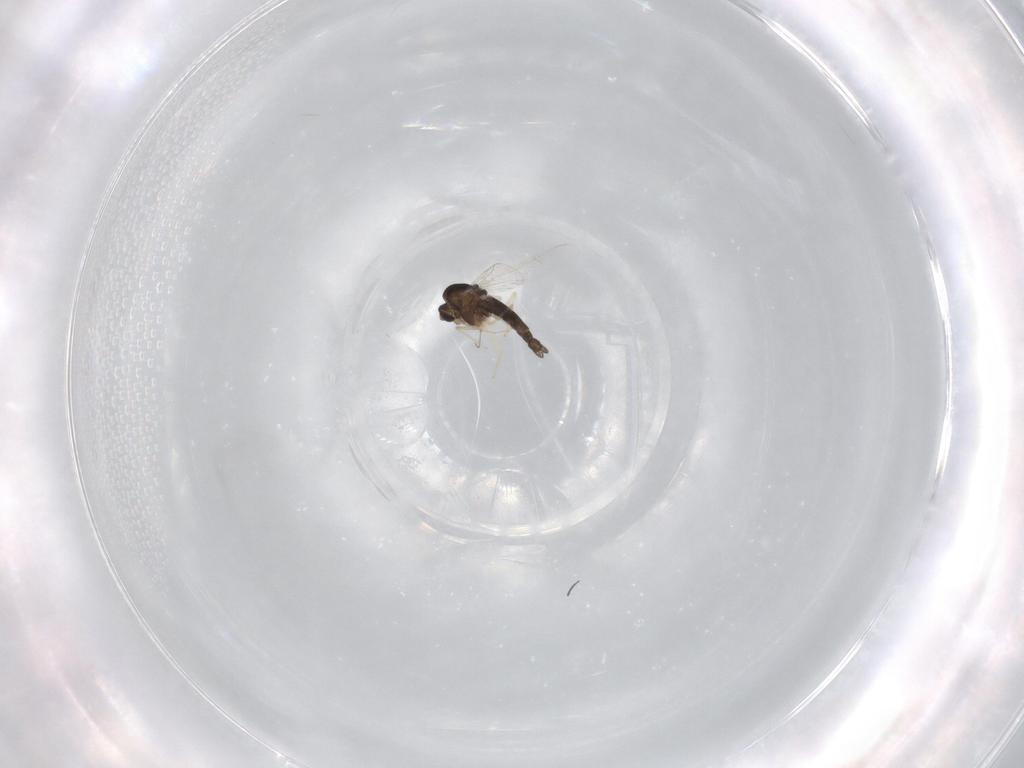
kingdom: Animalia
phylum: Arthropoda
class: Insecta
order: Diptera
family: Chironomidae
